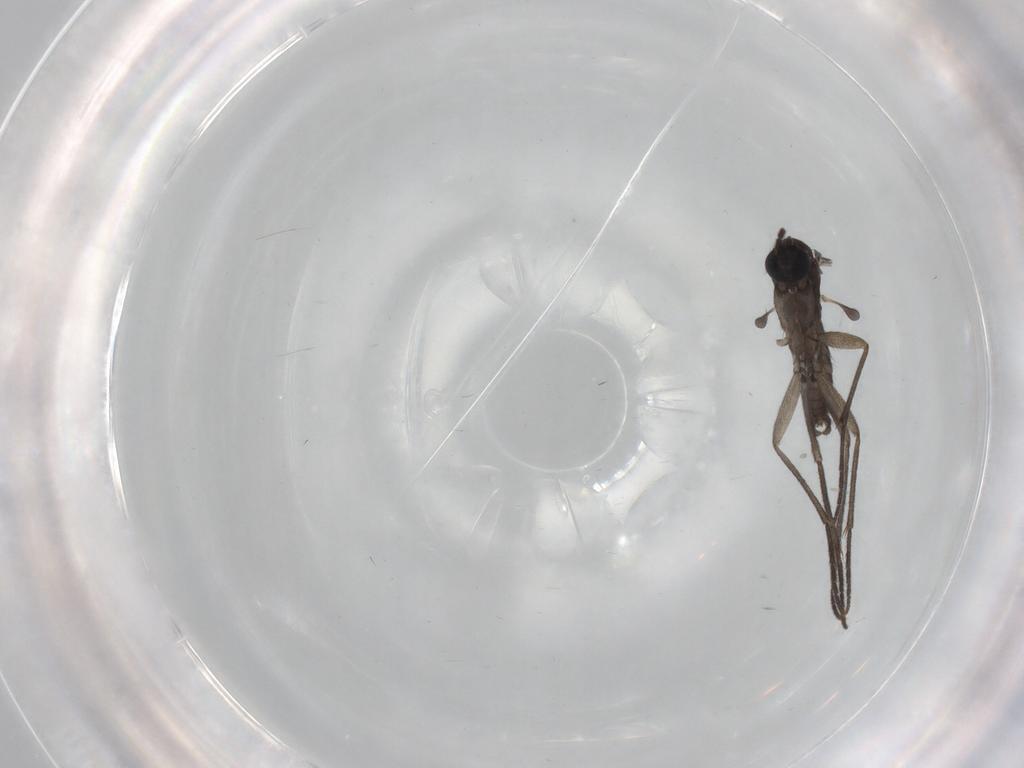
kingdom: Animalia
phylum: Arthropoda
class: Insecta
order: Diptera
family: Sciaridae
